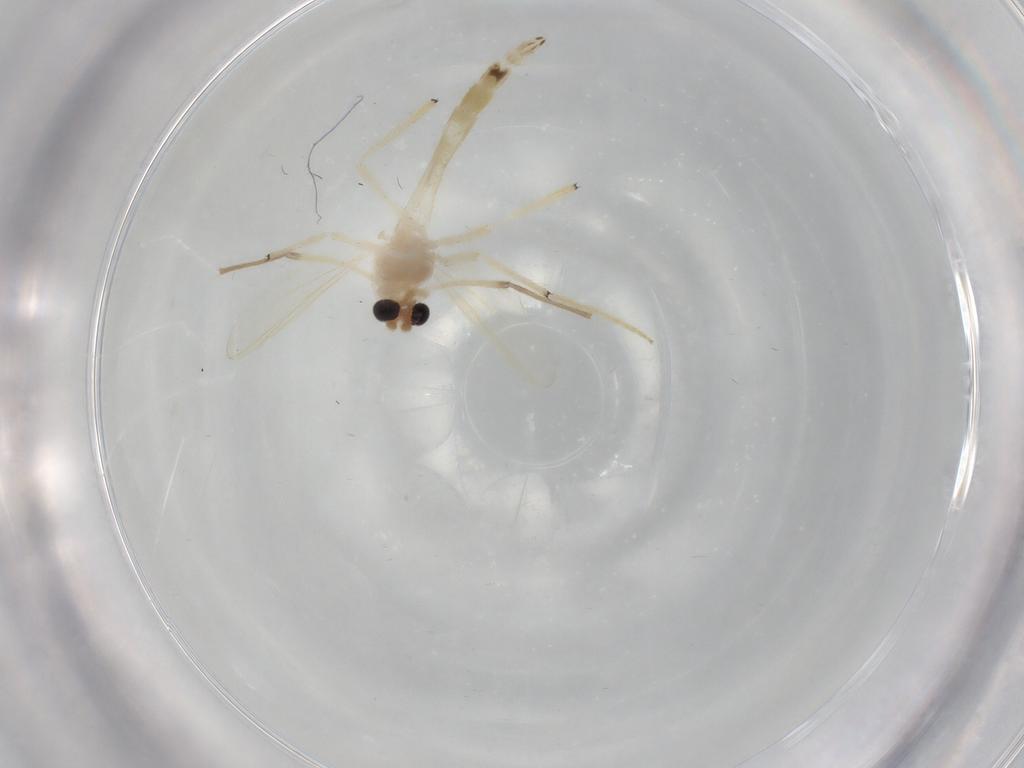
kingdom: Animalia
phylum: Arthropoda
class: Insecta
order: Diptera
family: Chironomidae
